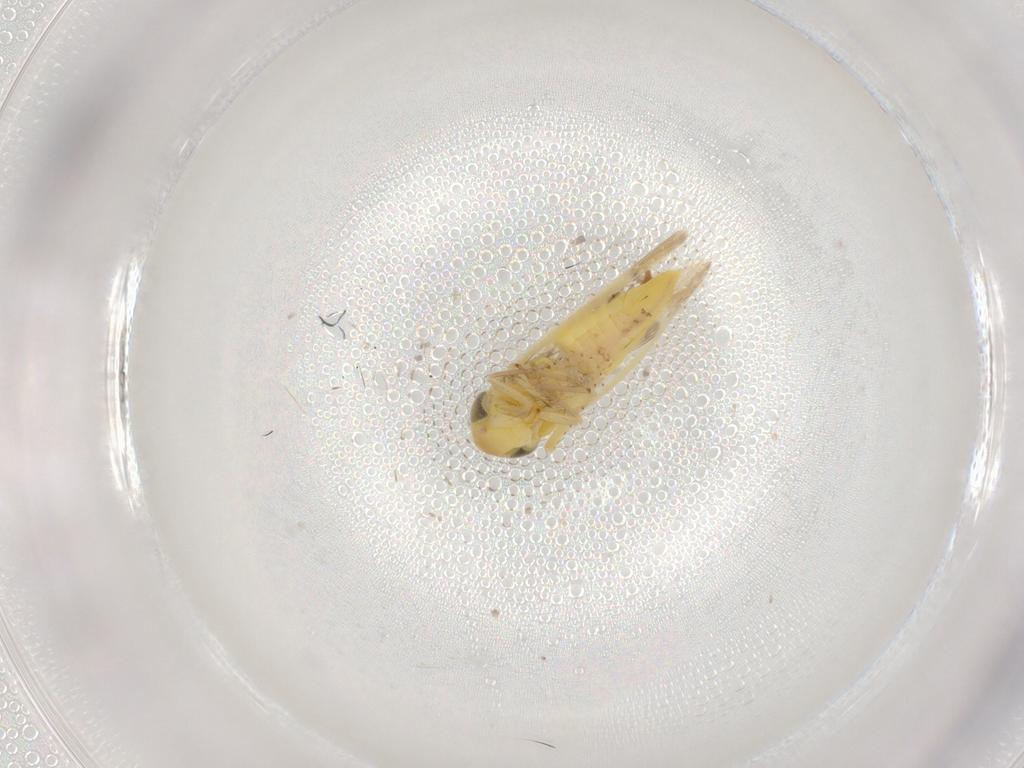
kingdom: Animalia
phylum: Arthropoda
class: Insecta
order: Hemiptera
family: Cicadellidae
